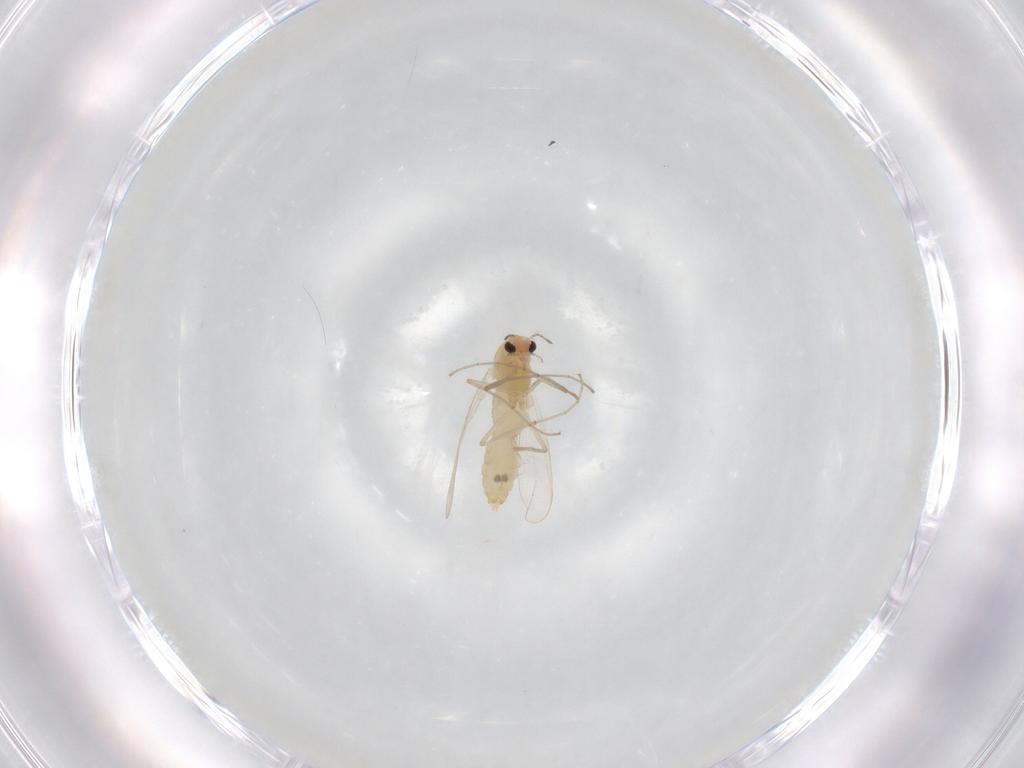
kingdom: Animalia
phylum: Arthropoda
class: Insecta
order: Diptera
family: Chironomidae
